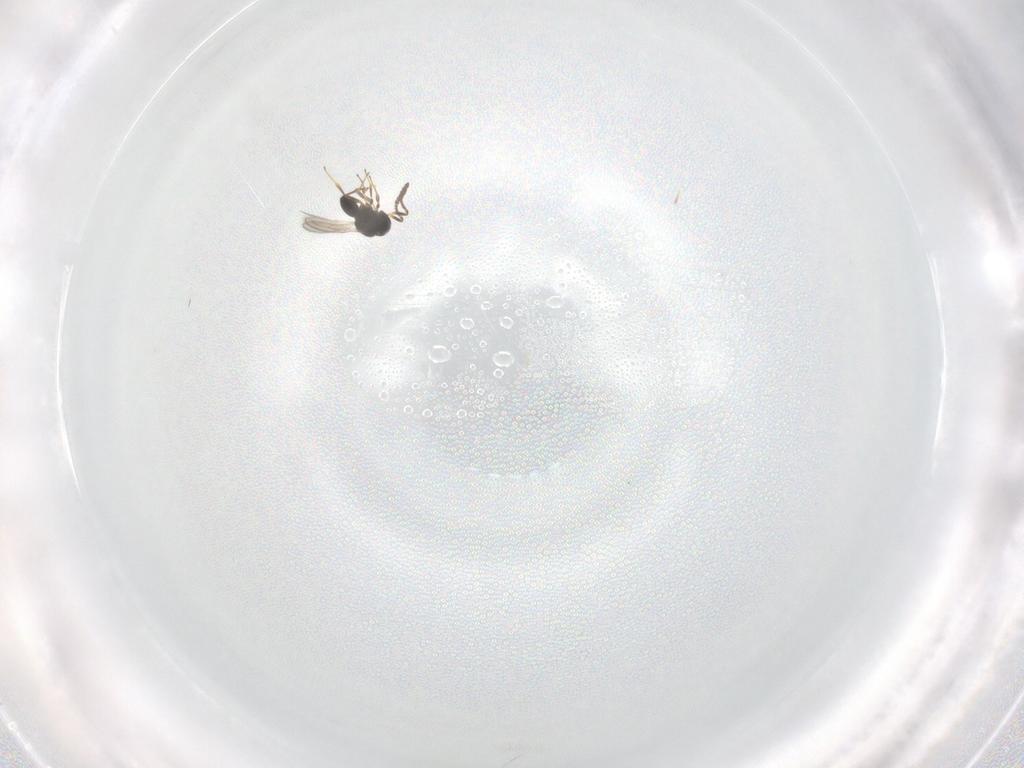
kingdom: Animalia
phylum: Arthropoda
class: Insecta
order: Hymenoptera
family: Scelionidae
